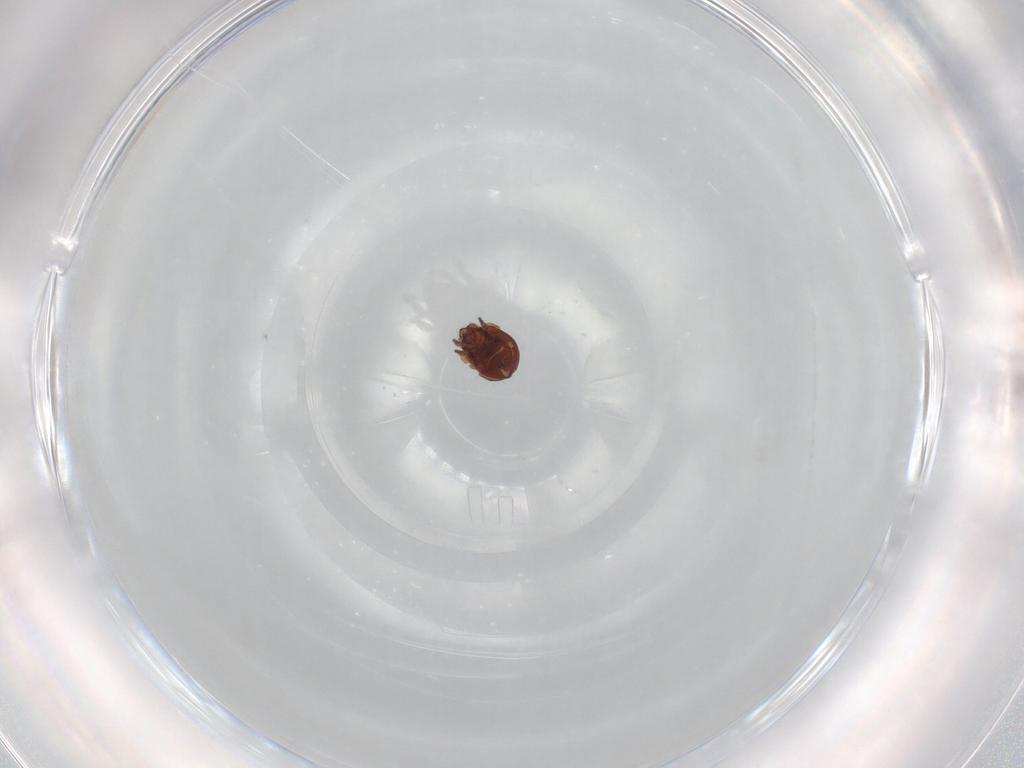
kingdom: Animalia
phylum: Arthropoda
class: Arachnida
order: Sarcoptiformes
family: Humerobatidae
